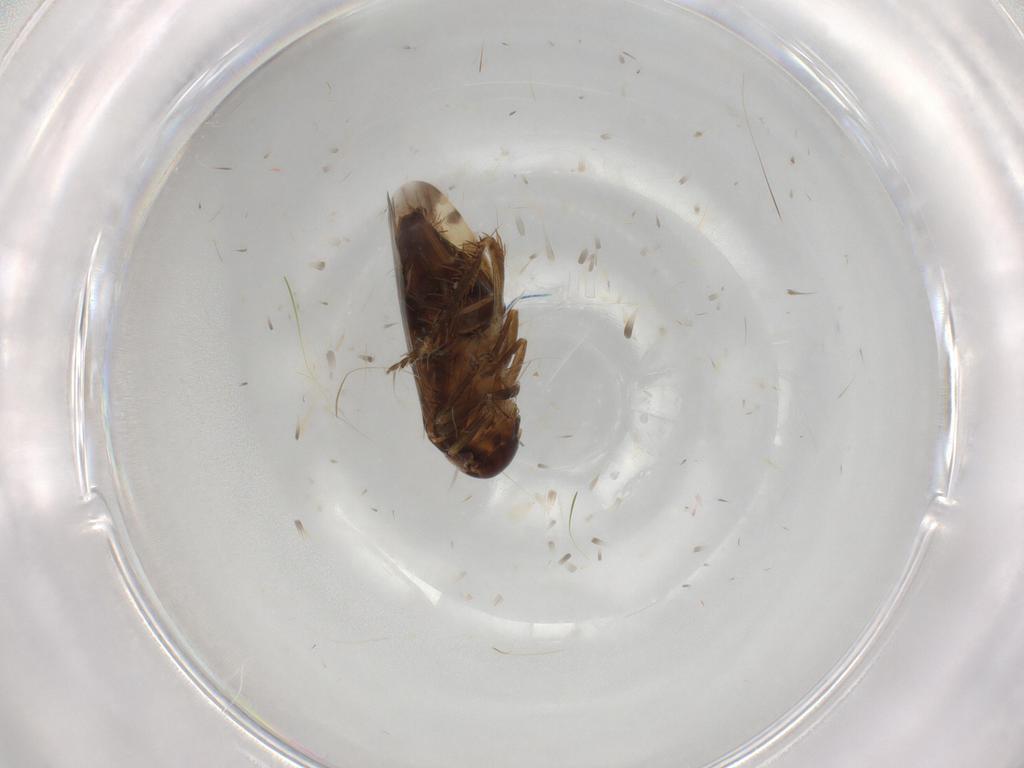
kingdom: Animalia
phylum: Arthropoda
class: Insecta
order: Hemiptera
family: Cicadellidae
